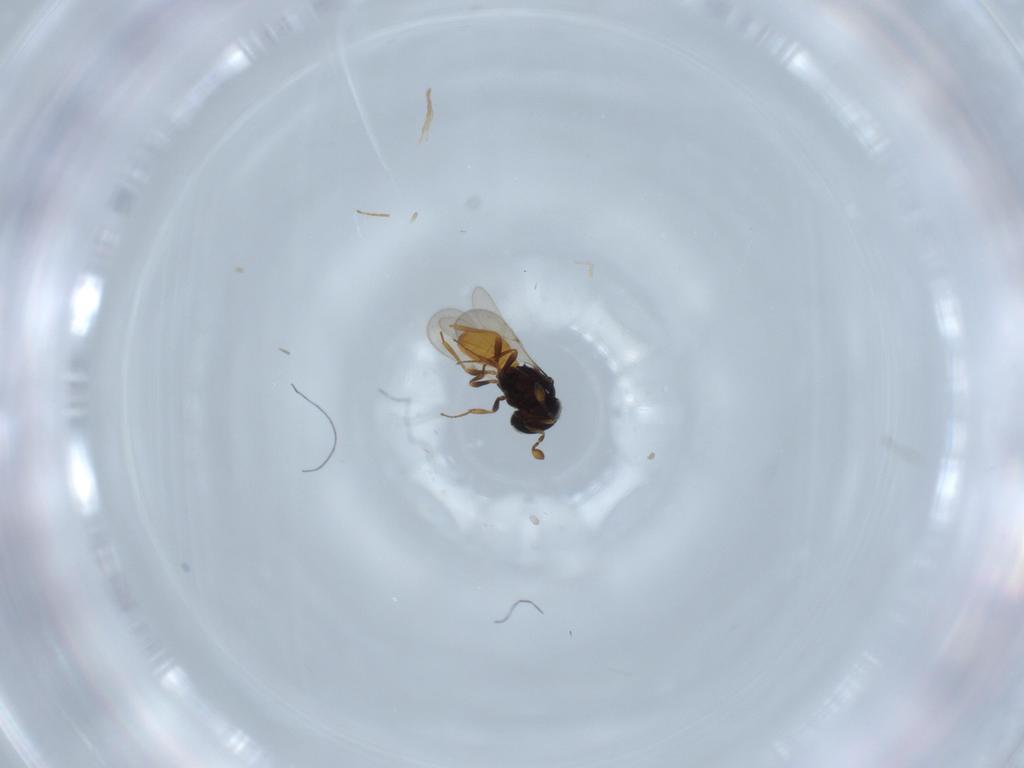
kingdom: Animalia
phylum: Arthropoda
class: Insecta
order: Hymenoptera
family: Scelionidae
